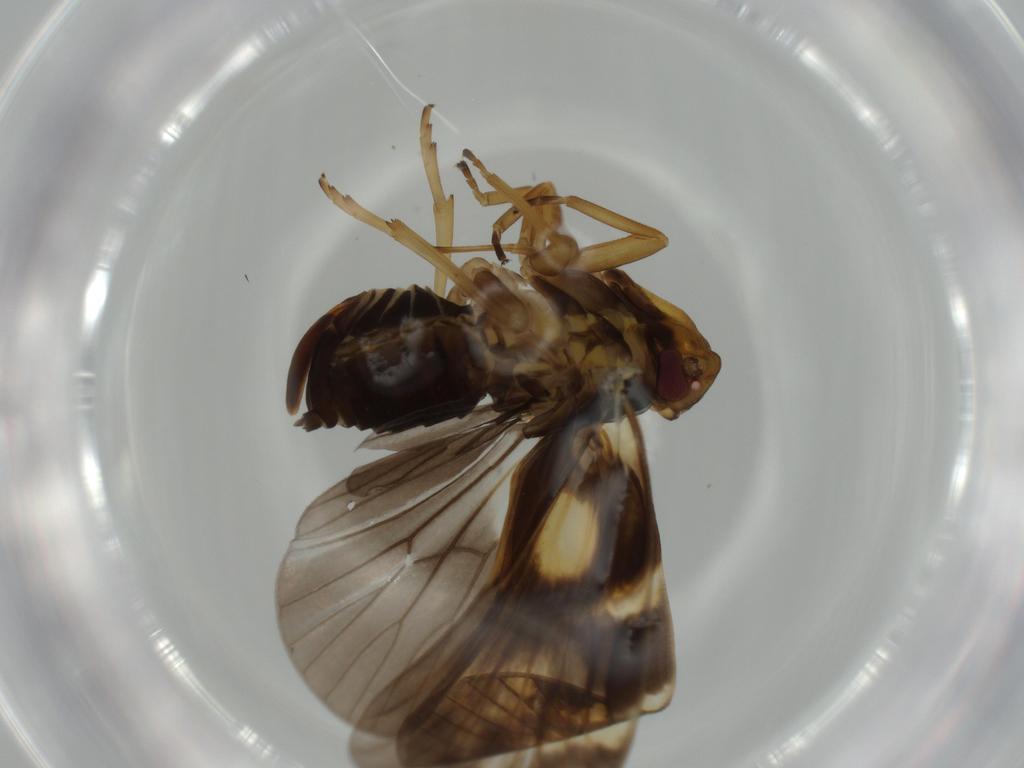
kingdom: Animalia
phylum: Arthropoda
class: Insecta
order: Hemiptera
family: Cixiidae
